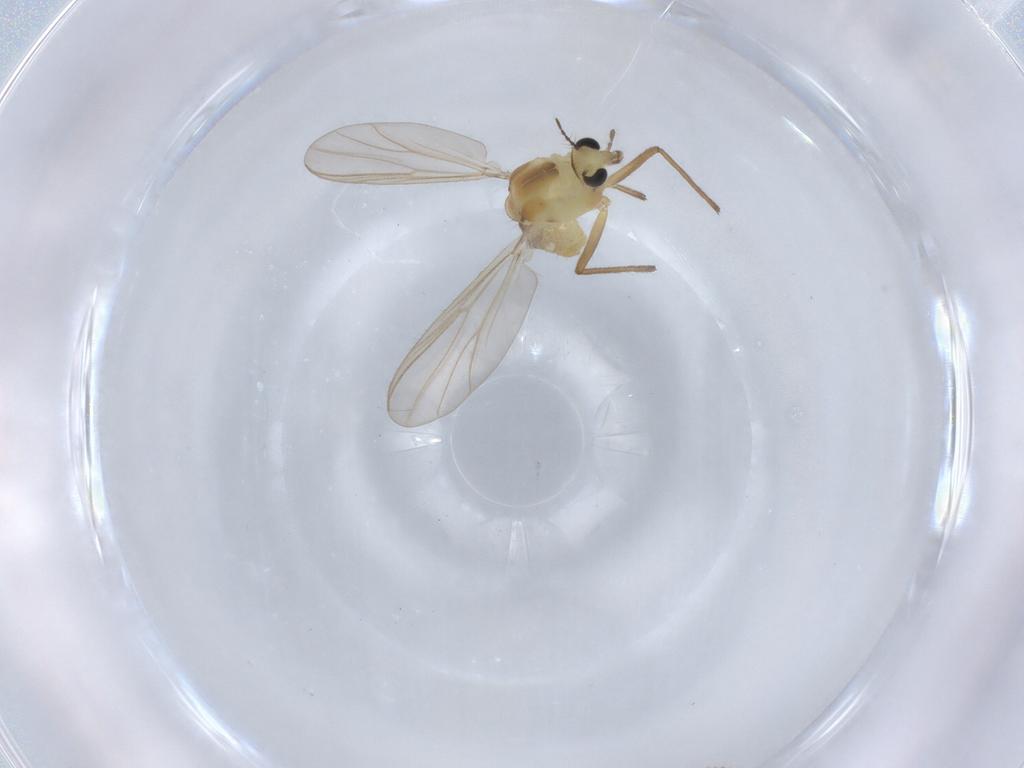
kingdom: Animalia
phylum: Arthropoda
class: Insecta
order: Diptera
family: Chironomidae
